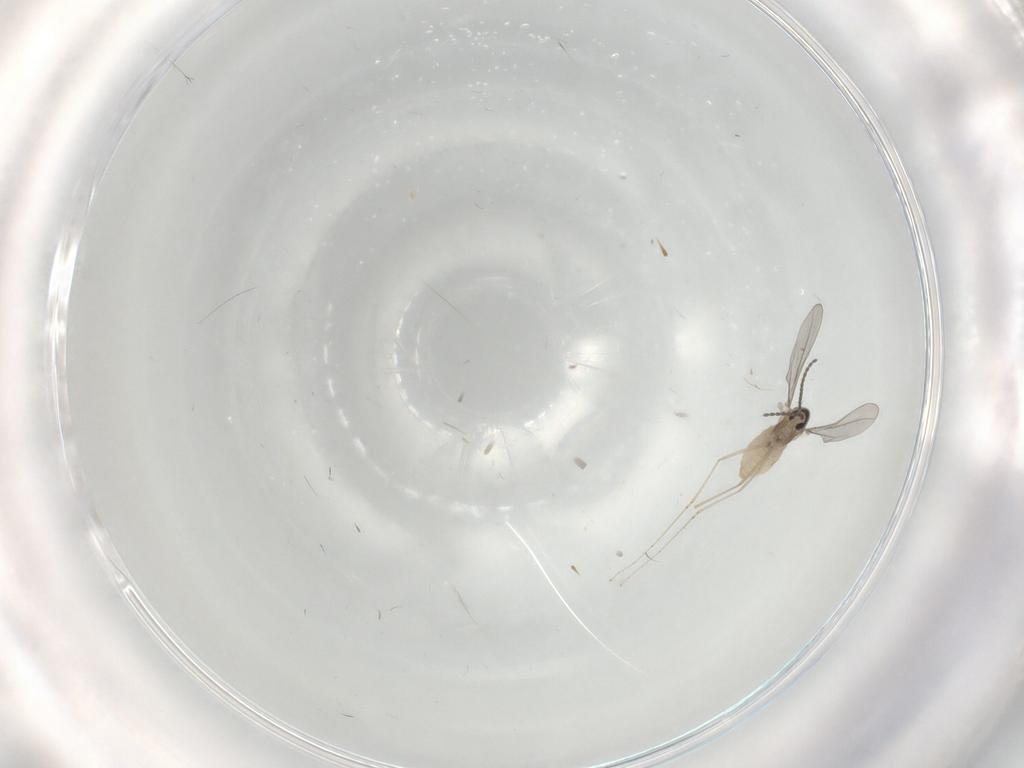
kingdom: Animalia
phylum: Arthropoda
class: Insecta
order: Diptera
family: Cecidomyiidae
